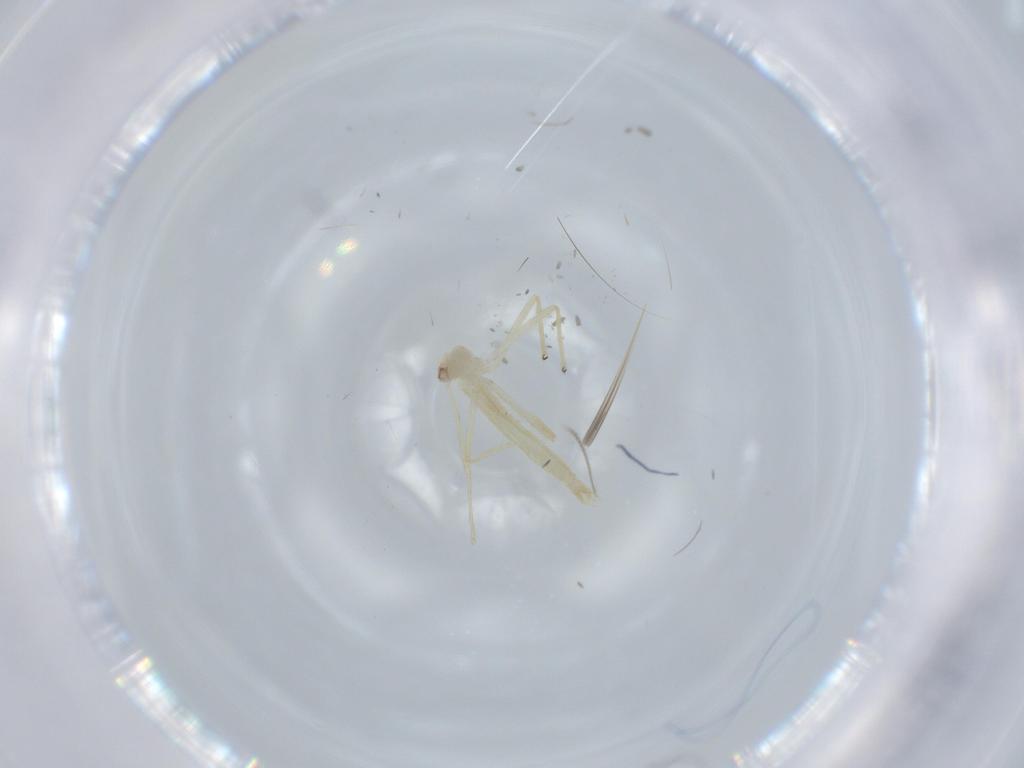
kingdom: Animalia
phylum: Arthropoda
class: Insecta
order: Diptera
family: Chironomidae
